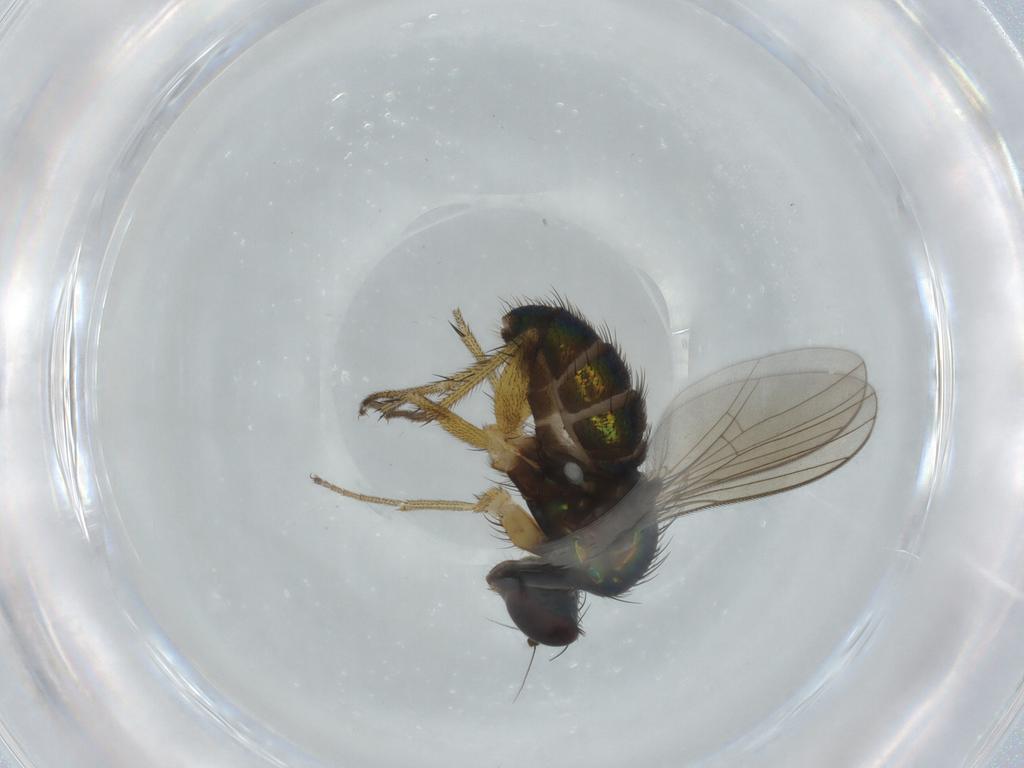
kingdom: Animalia
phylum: Arthropoda
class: Insecta
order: Diptera
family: Dolichopodidae
